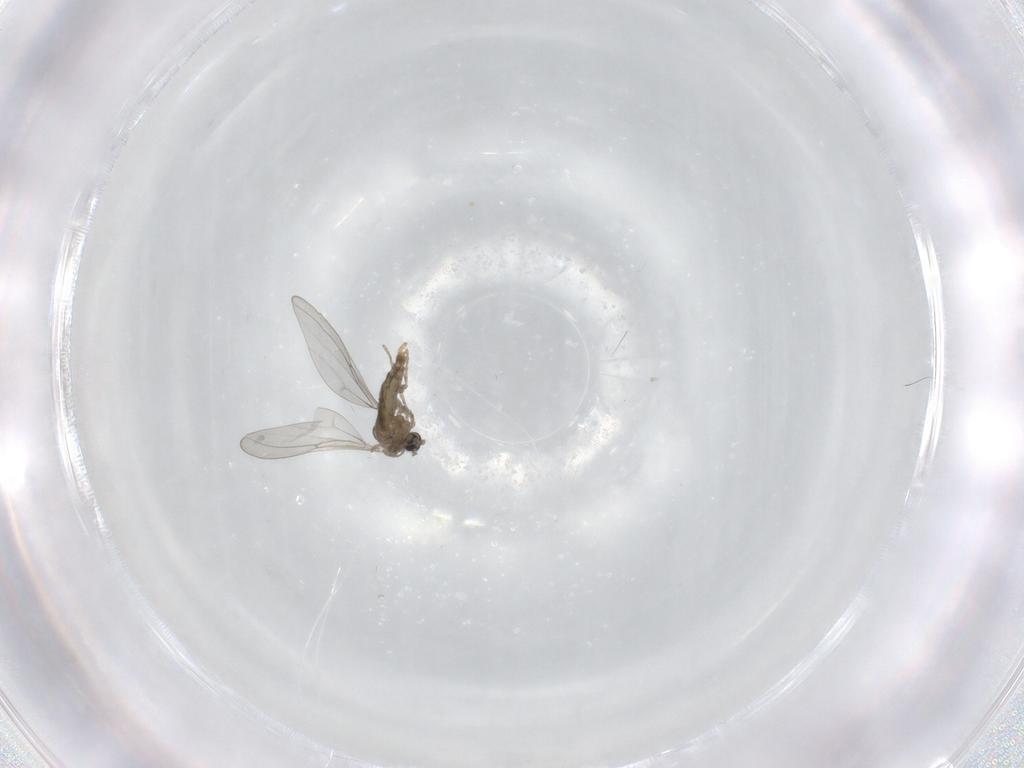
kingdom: Animalia
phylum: Arthropoda
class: Insecta
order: Diptera
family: Cecidomyiidae
